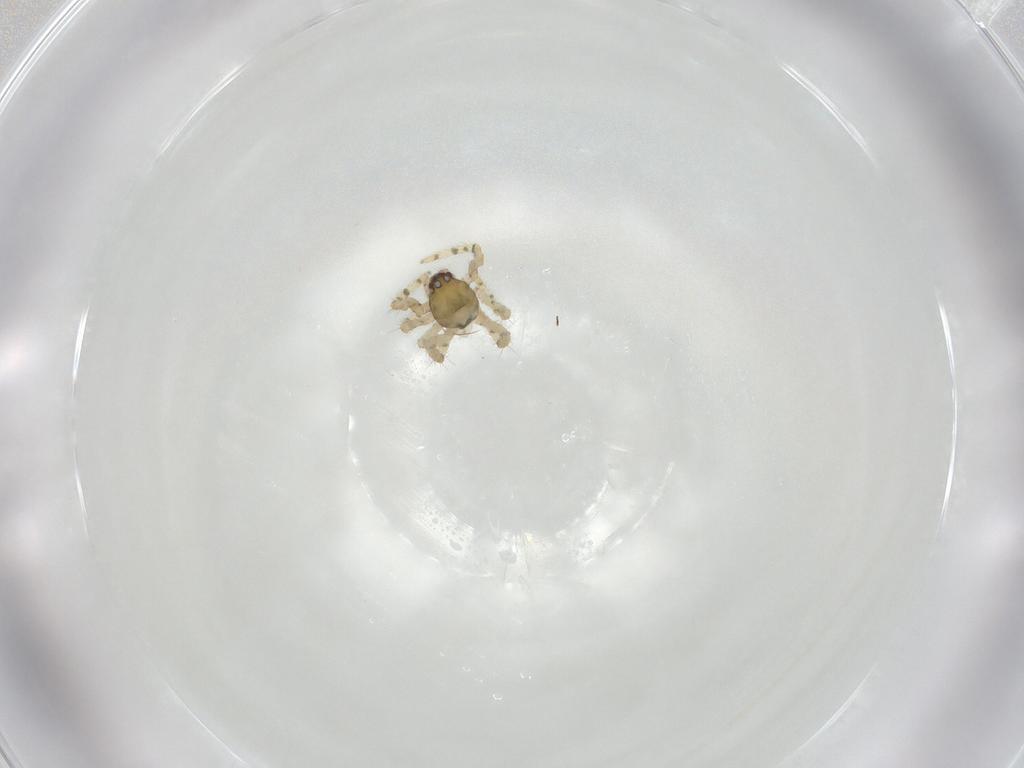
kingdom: Animalia
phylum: Arthropoda
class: Arachnida
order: Araneae
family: Theridiidae
